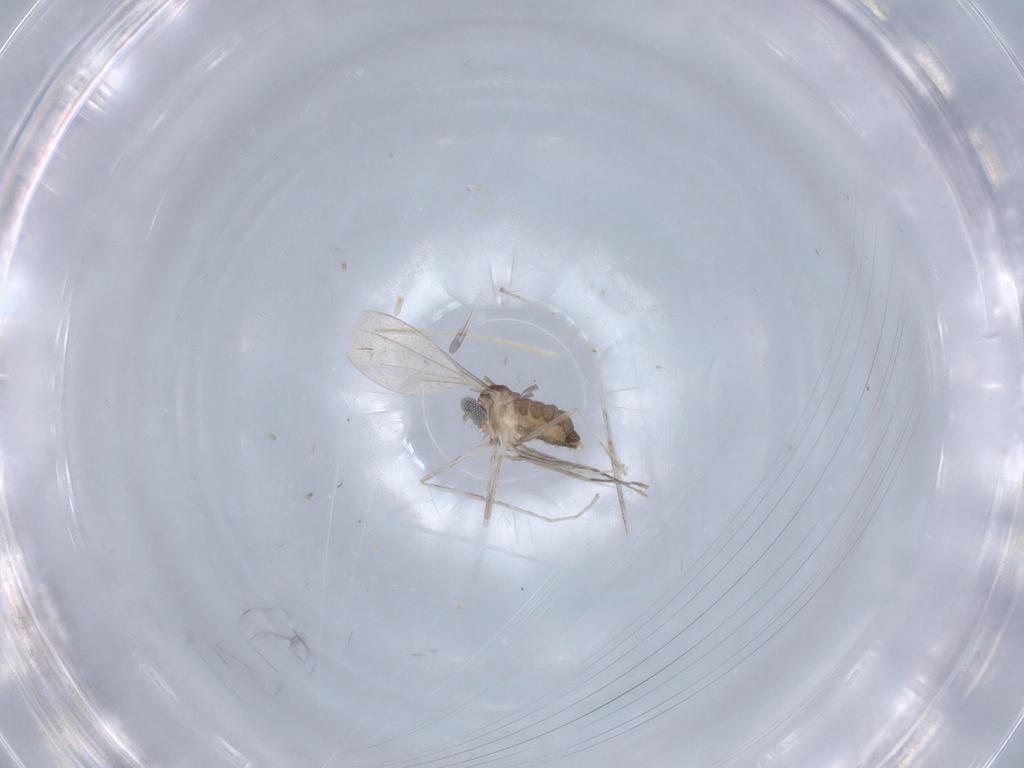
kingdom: Animalia
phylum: Arthropoda
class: Insecta
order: Diptera
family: Cecidomyiidae
